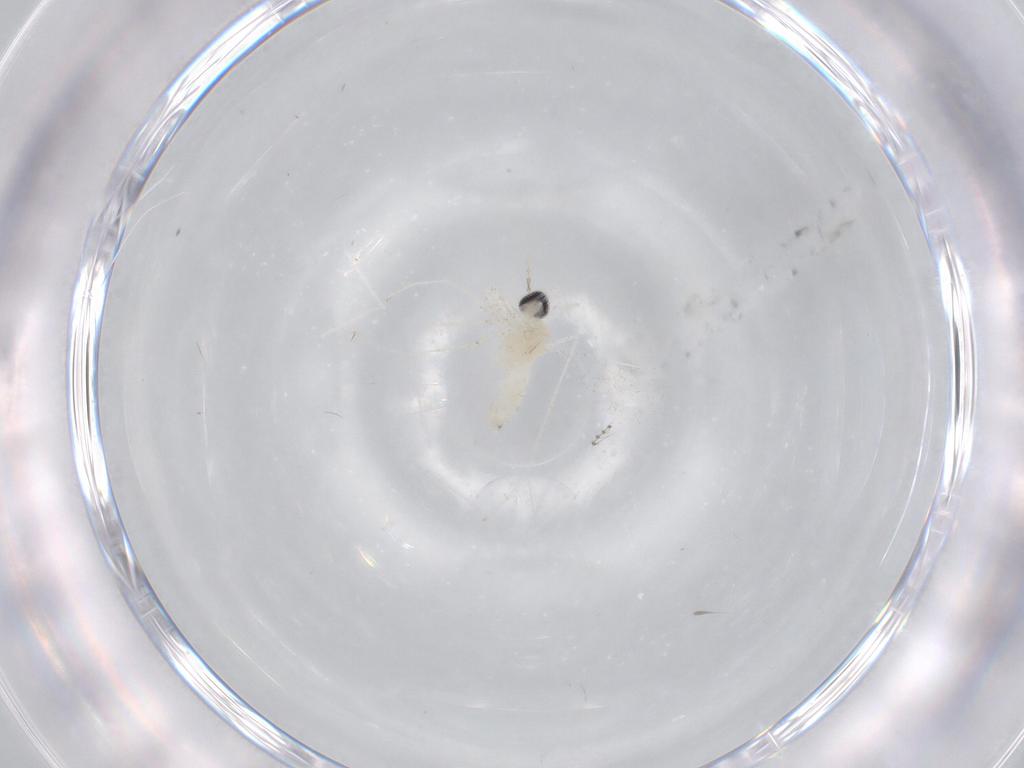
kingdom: Animalia
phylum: Arthropoda
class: Insecta
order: Diptera
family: Cecidomyiidae
